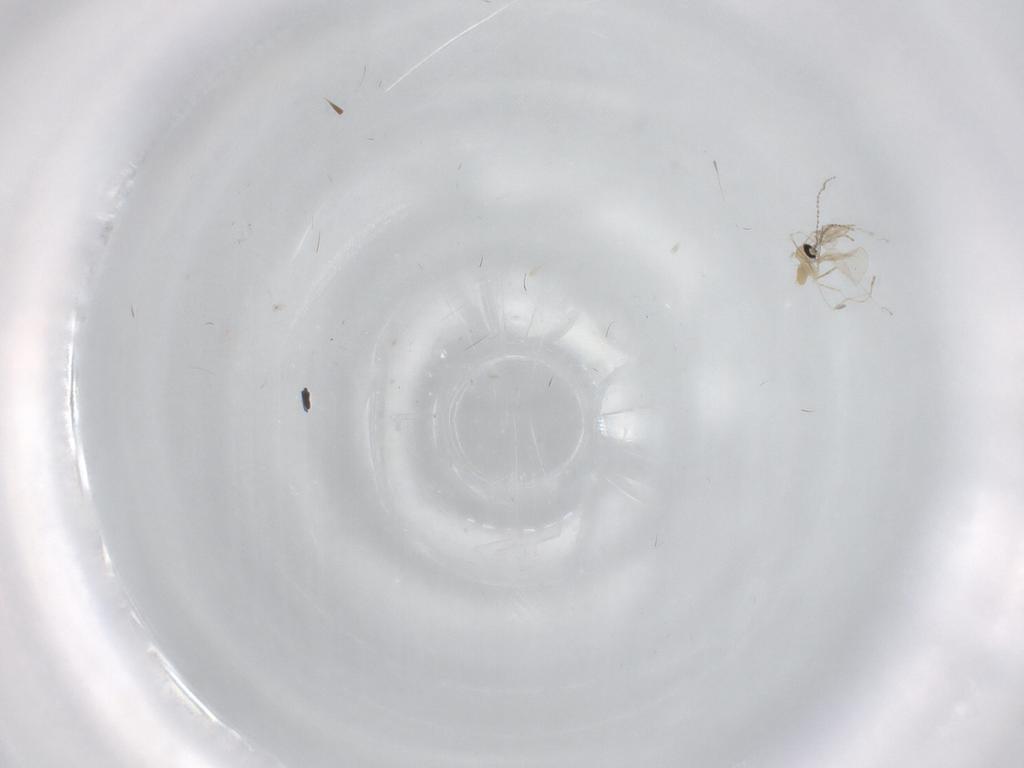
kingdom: Animalia
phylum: Arthropoda
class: Insecta
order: Diptera
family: Cecidomyiidae
